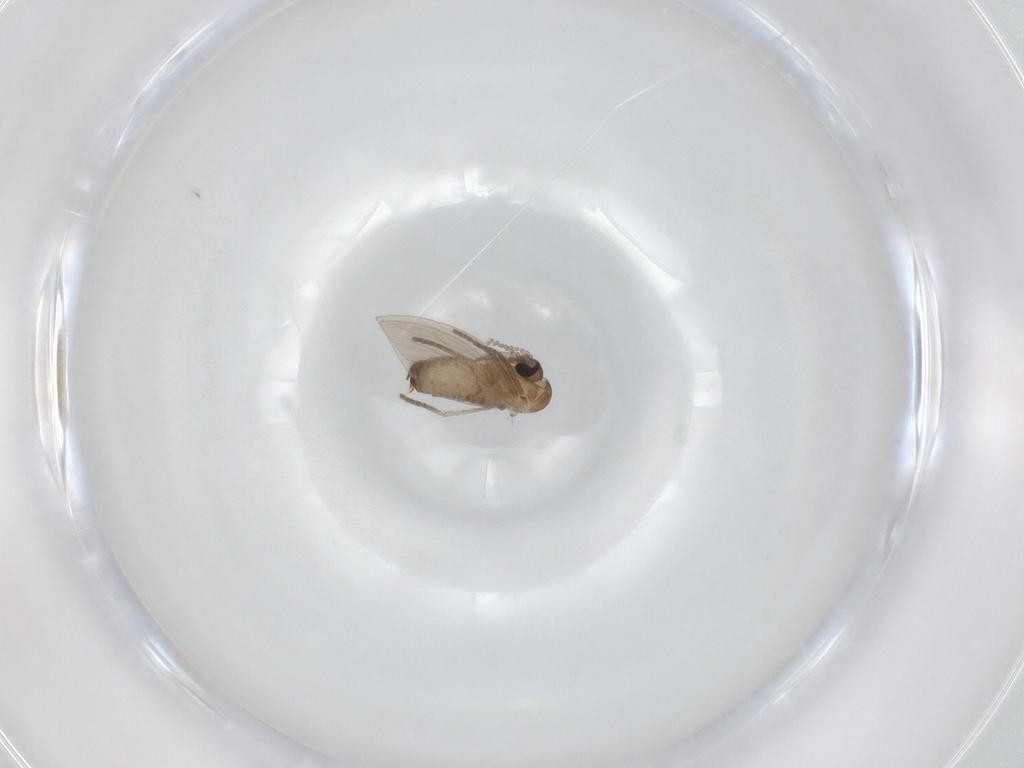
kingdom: Animalia
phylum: Arthropoda
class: Insecta
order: Diptera
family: Psychodidae
